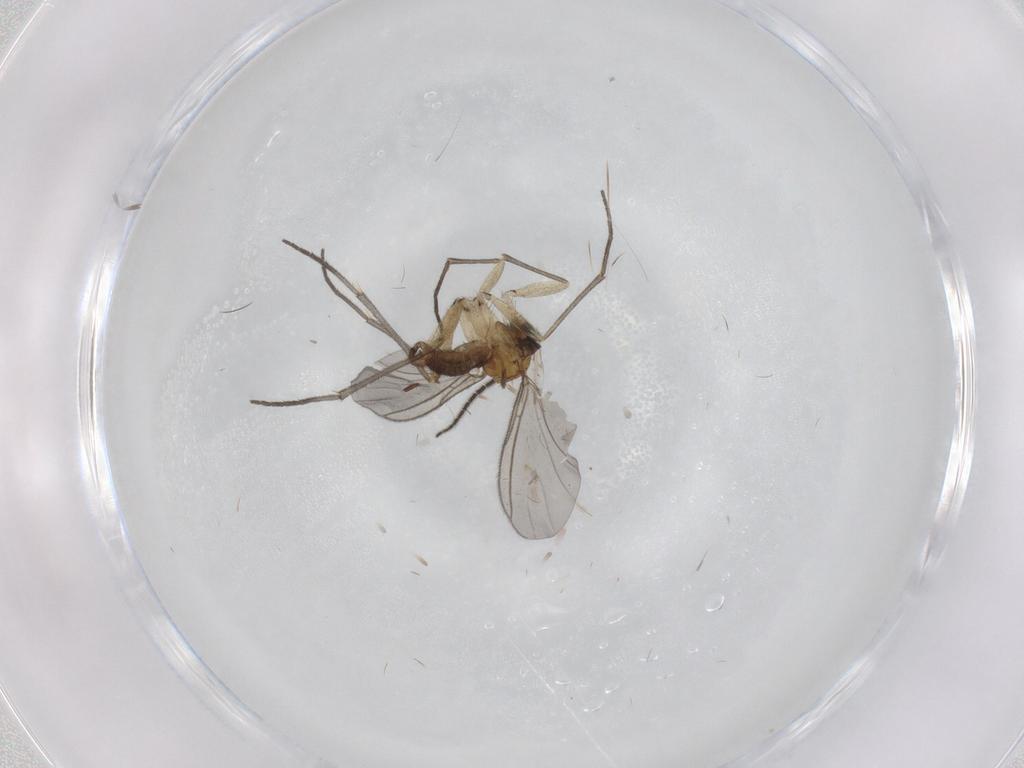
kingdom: Animalia
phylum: Arthropoda
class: Insecta
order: Diptera
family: Sciaridae
